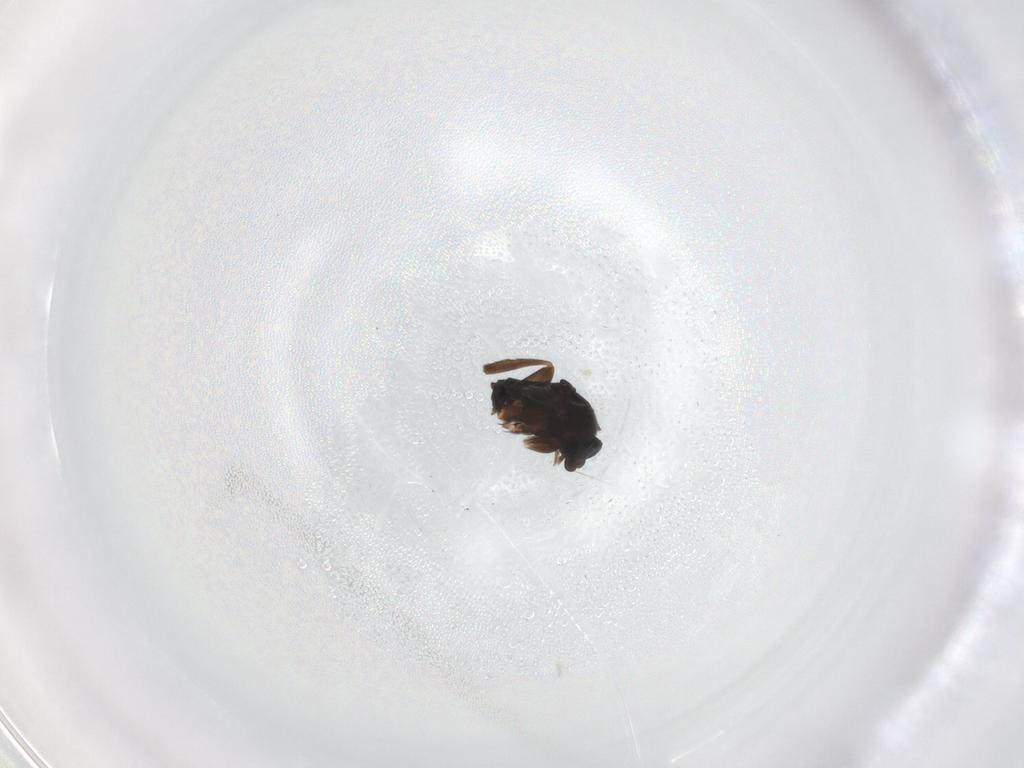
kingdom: Animalia
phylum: Arthropoda
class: Insecta
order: Diptera
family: Phoridae
